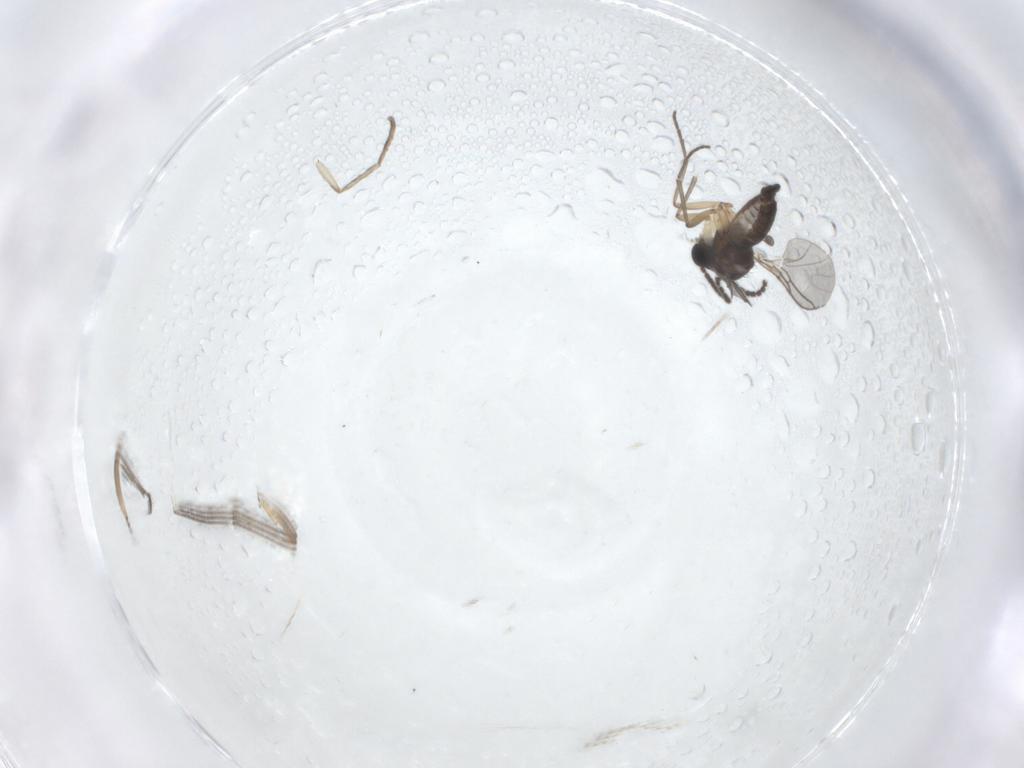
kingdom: Animalia
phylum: Arthropoda
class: Insecta
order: Diptera
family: Sciaridae
